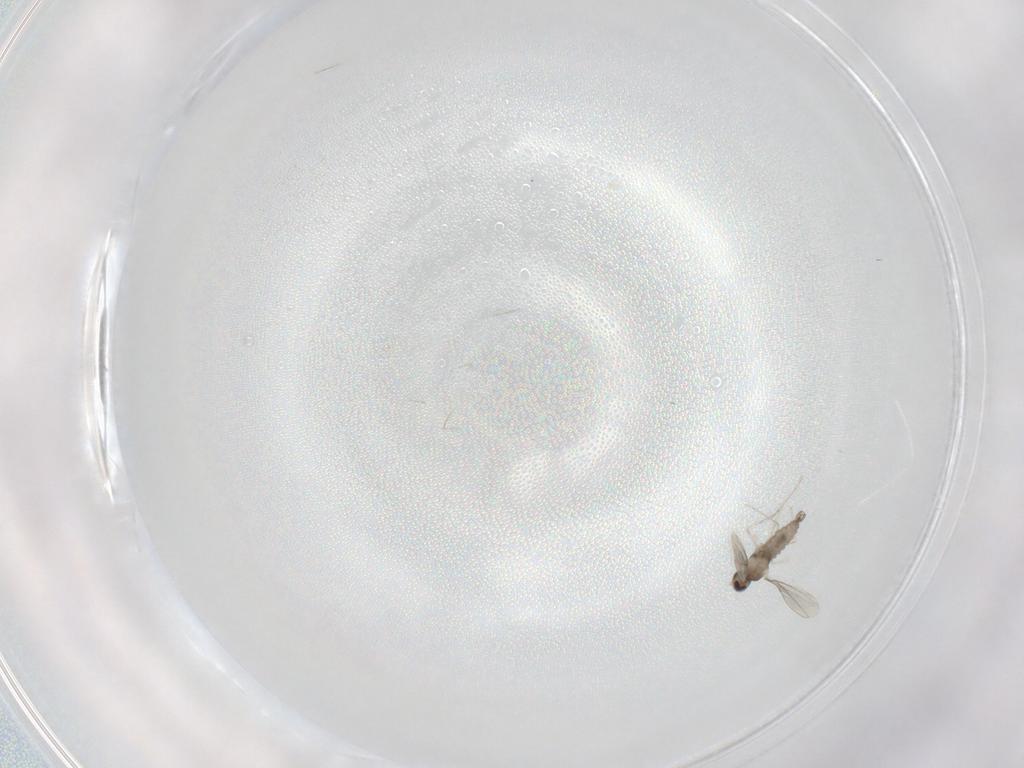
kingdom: Animalia
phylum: Arthropoda
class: Insecta
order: Diptera
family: Cecidomyiidae
